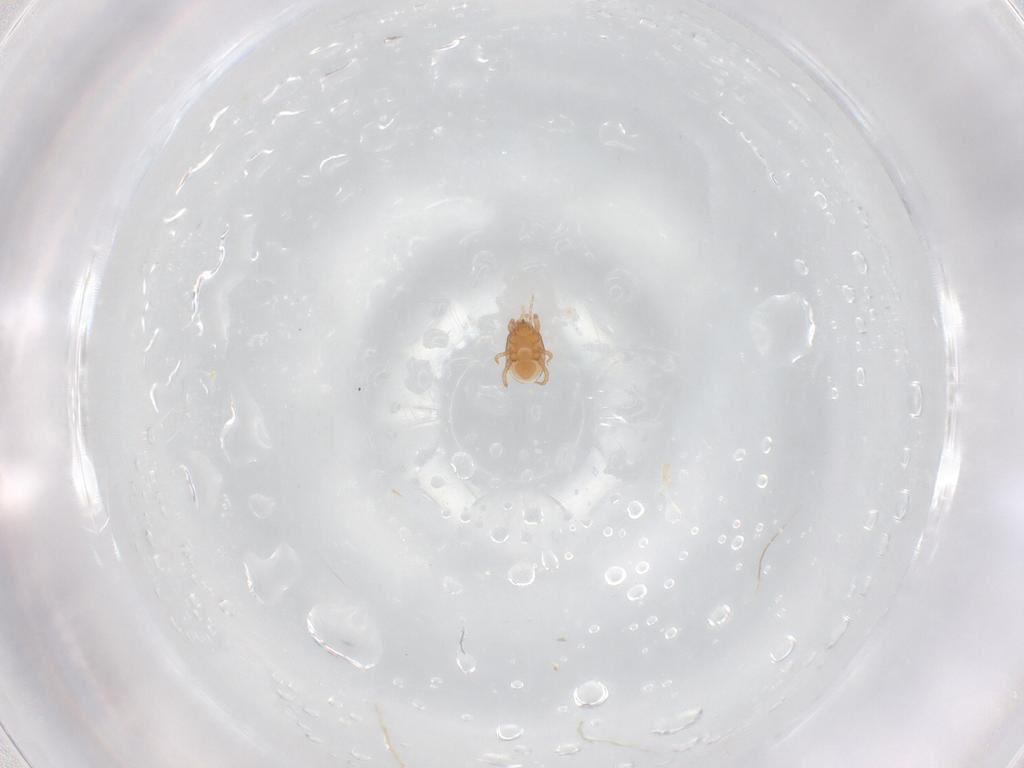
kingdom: Animalia
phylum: Arthropoda
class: Arachnida
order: Mesostigmata
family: Macrochelidae
